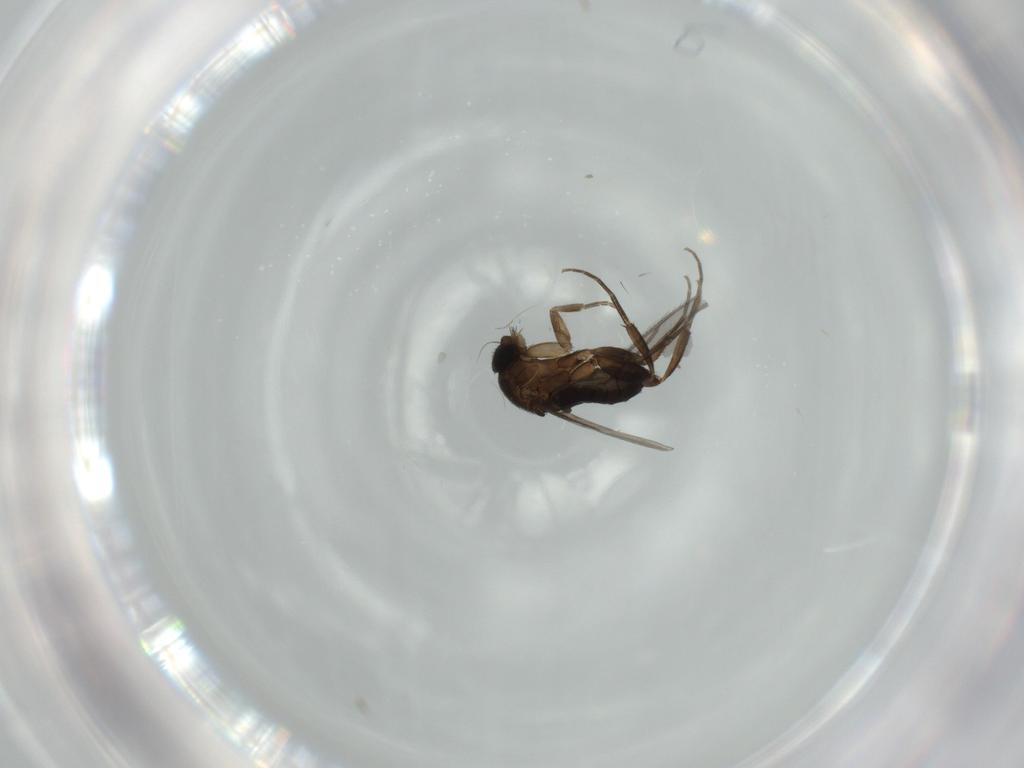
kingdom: Animalia
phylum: Arthropoda
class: Insecta
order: Diptera
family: Phoridae
